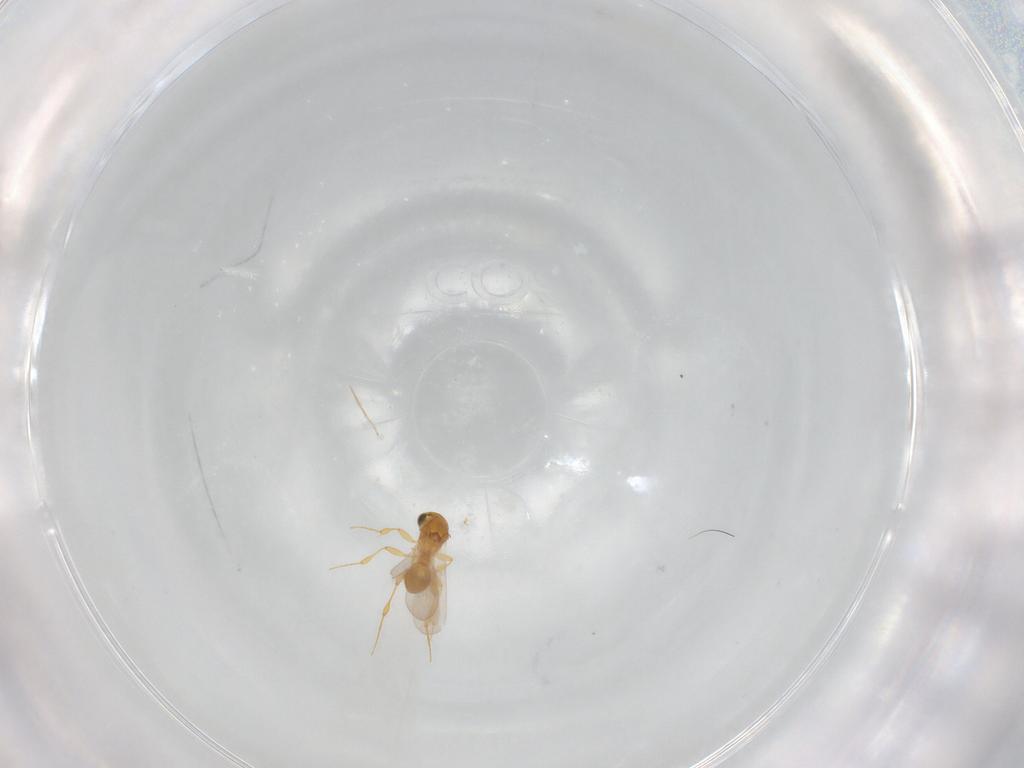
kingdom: Animalia
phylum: Arthropoda
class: Insecta
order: Hymenoptera
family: Platygastridae
